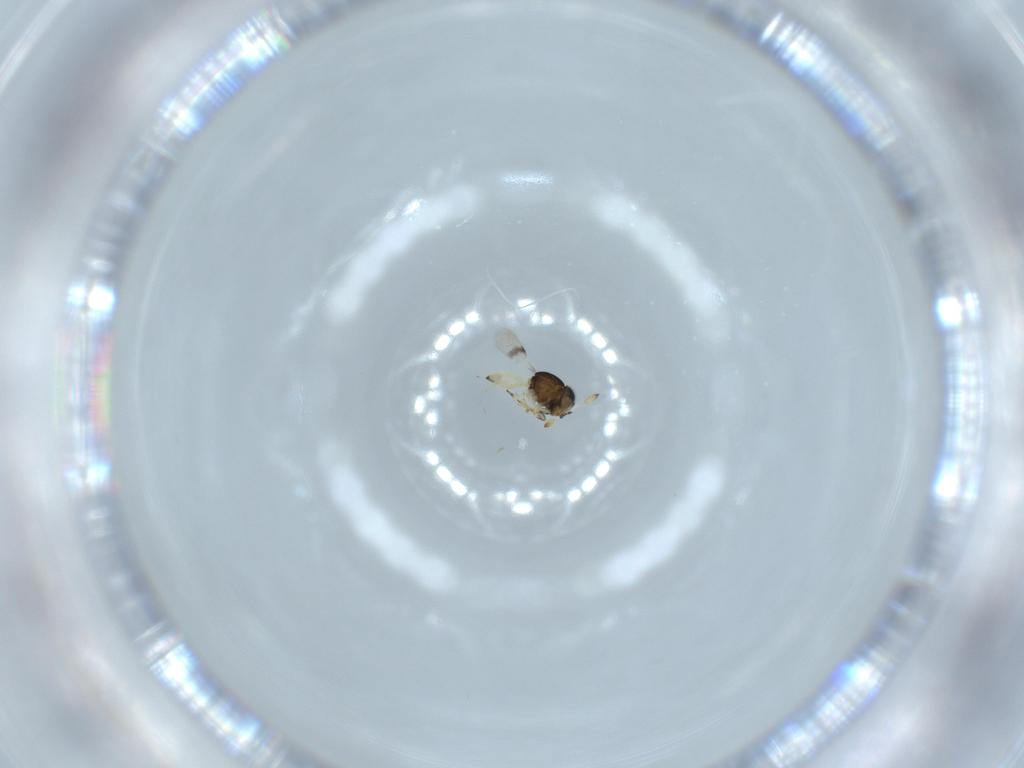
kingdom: Animalia
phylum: Arthropoda
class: Insecta
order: Hymenoptera
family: Scelionidae
